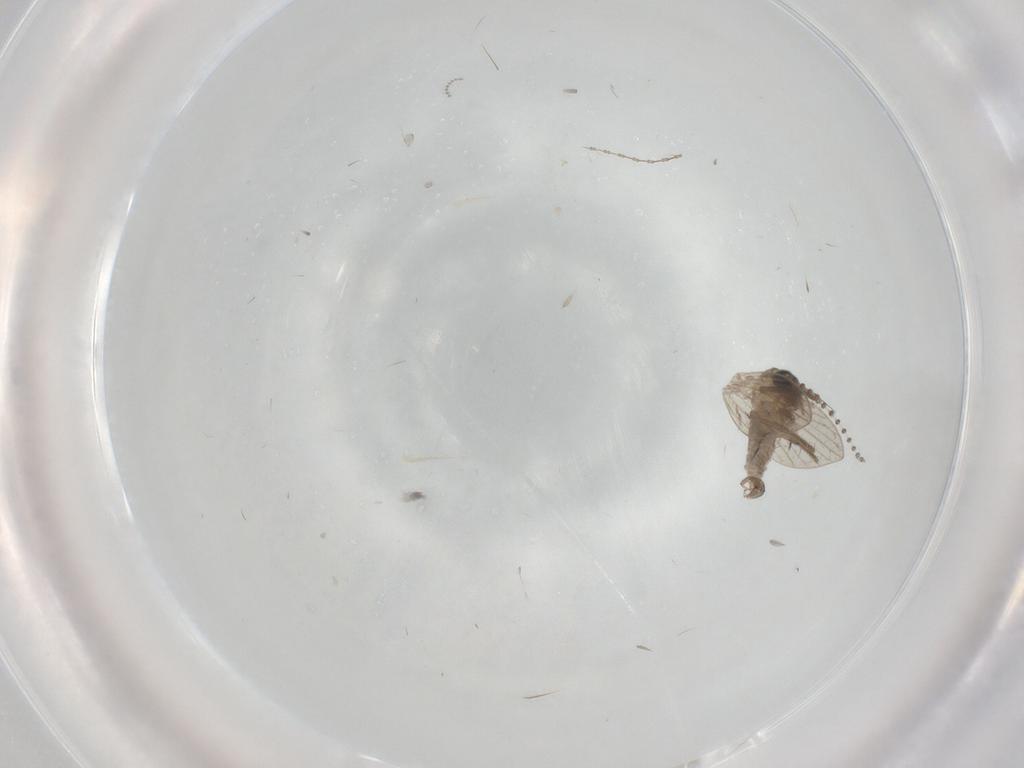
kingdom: Animalia
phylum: Arthropoda
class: Insecta
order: Diptera
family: Psychodidae
